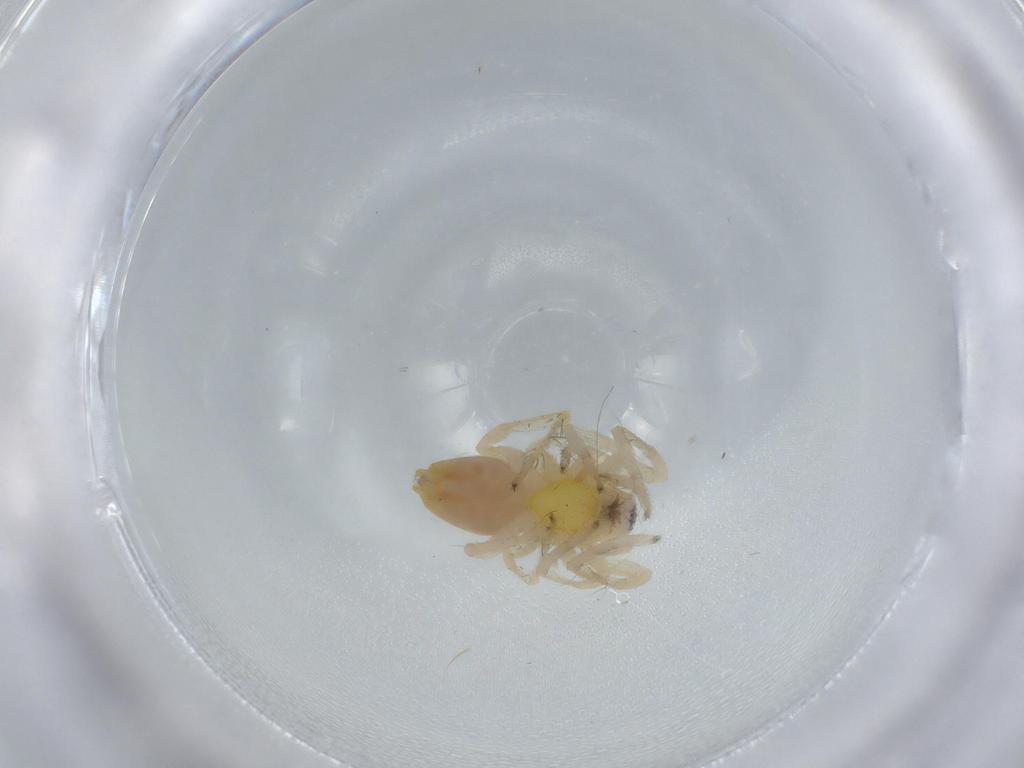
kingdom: Animalia
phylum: Arthropoda
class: Arachnida
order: Araneae
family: Anyphaenidae
